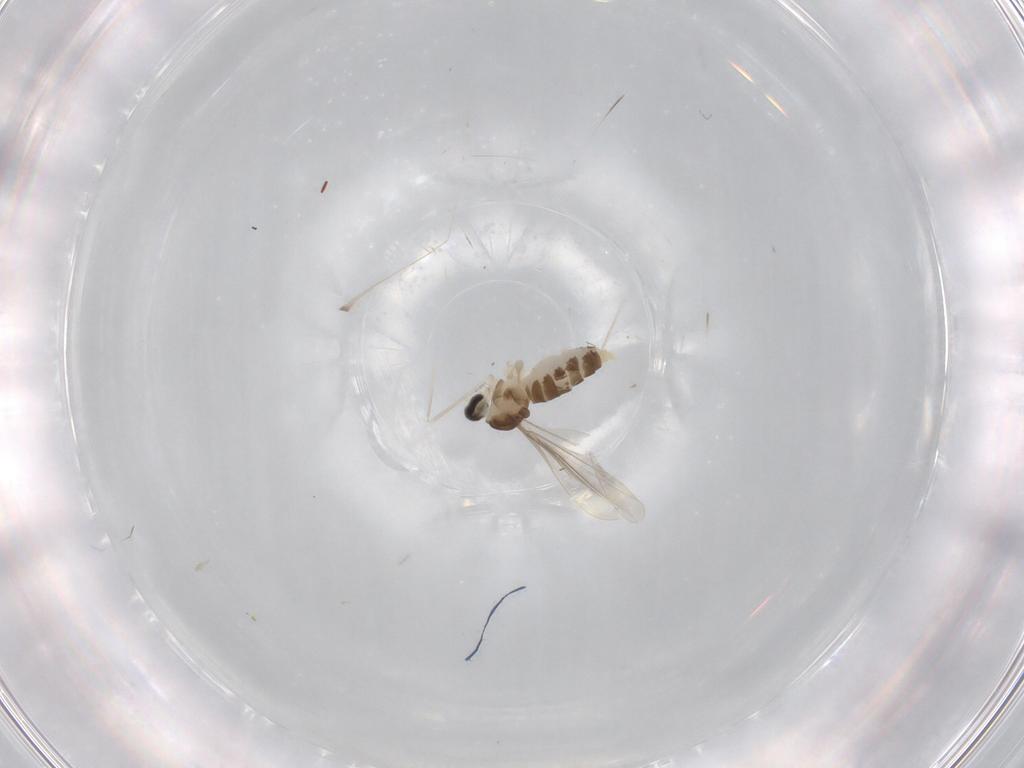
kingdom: Animalia
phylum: Arthropoda
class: Insecta
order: Diptera
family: Cecidomyiidae
